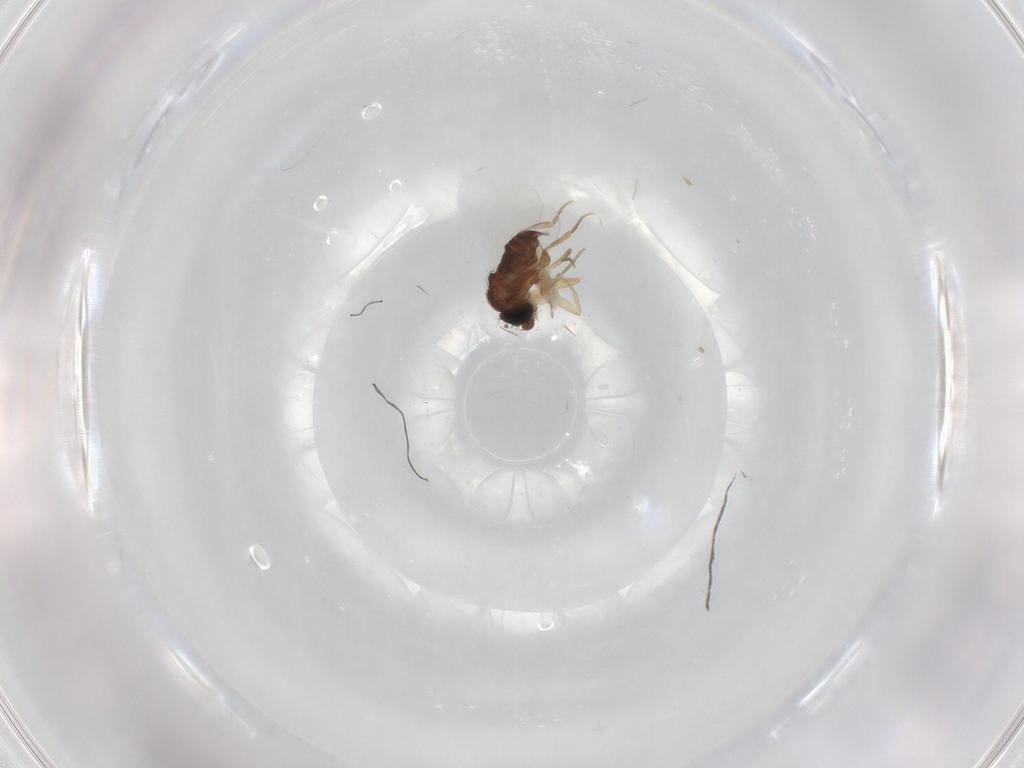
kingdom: Animalia
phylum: Arthropoda
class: Insecta
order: Diptera
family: Phoridae
